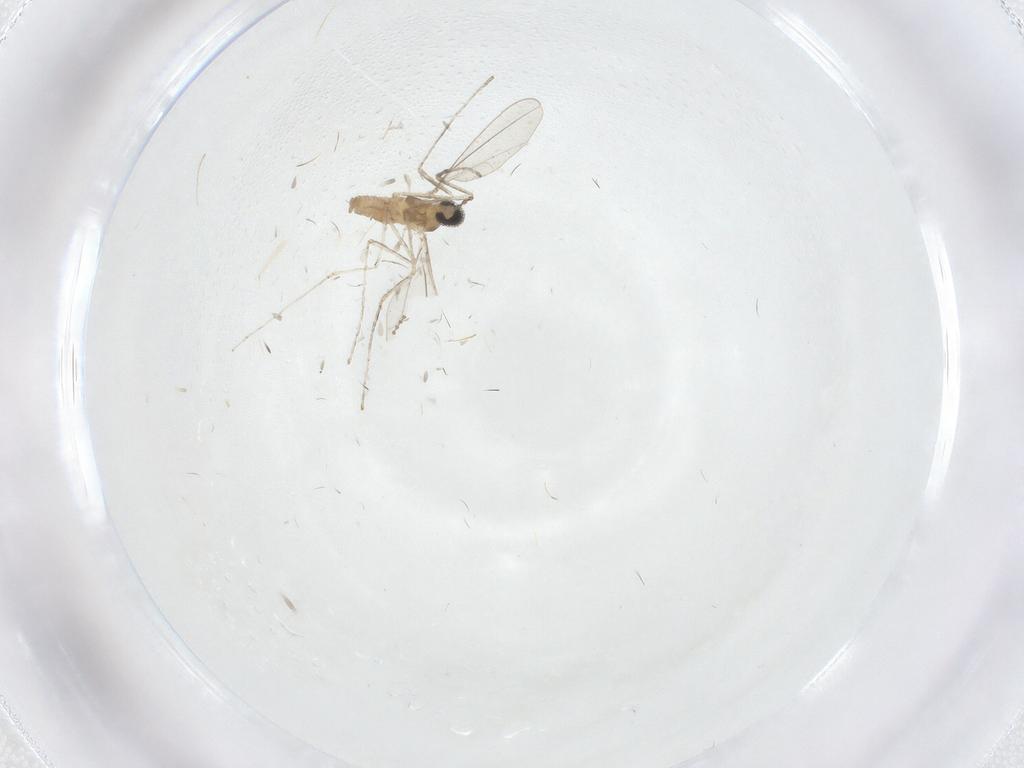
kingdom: Animalia
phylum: Arthropoda
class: Insecta
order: Diptera
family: Cecidomyiidae
